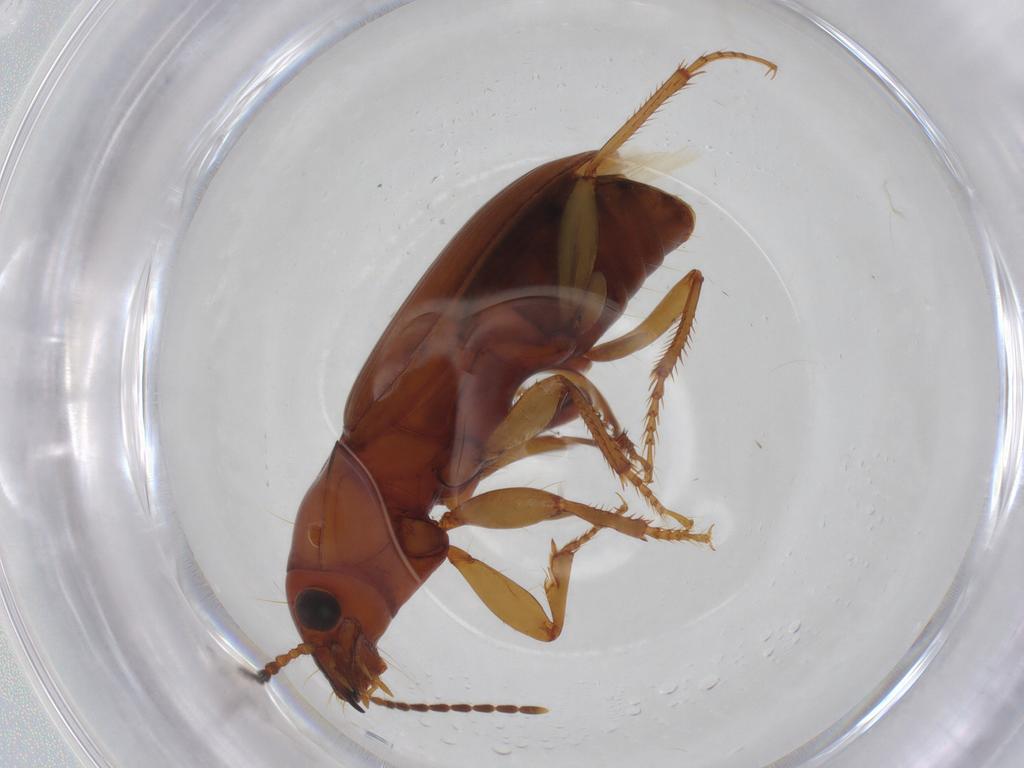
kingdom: Animalia
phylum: Arthropoda
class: Insecta
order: Coleoptera
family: Carabidae
